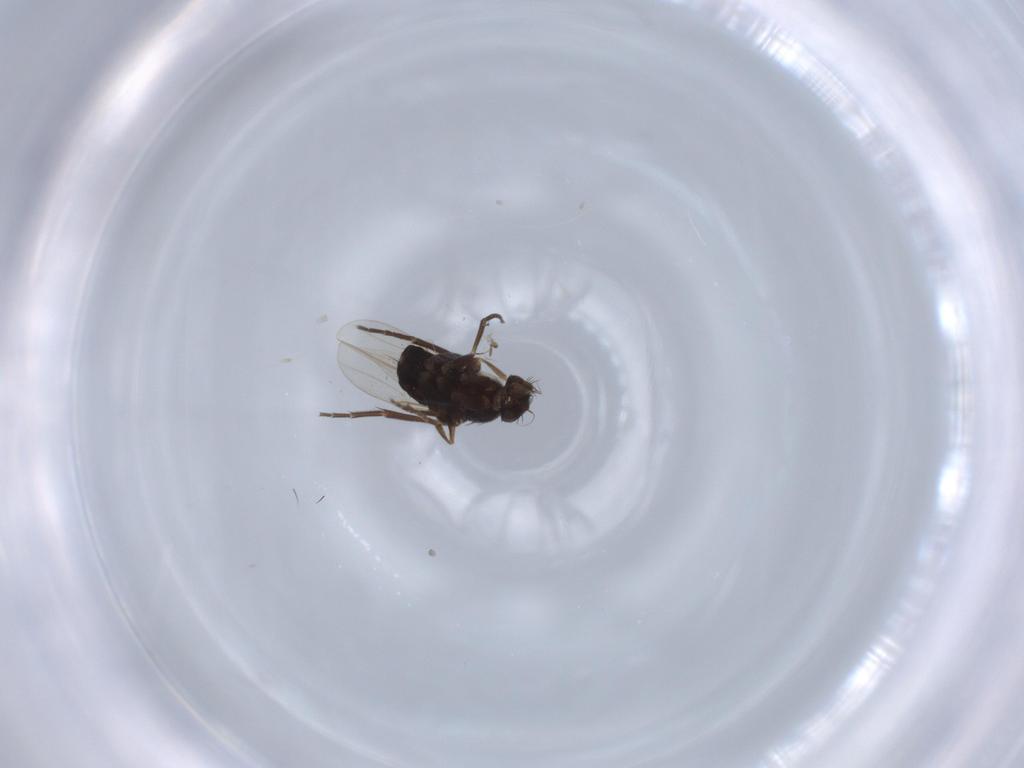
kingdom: Animalia
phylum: Arthropoda
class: Insecta
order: Diptera
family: Chloropidae
